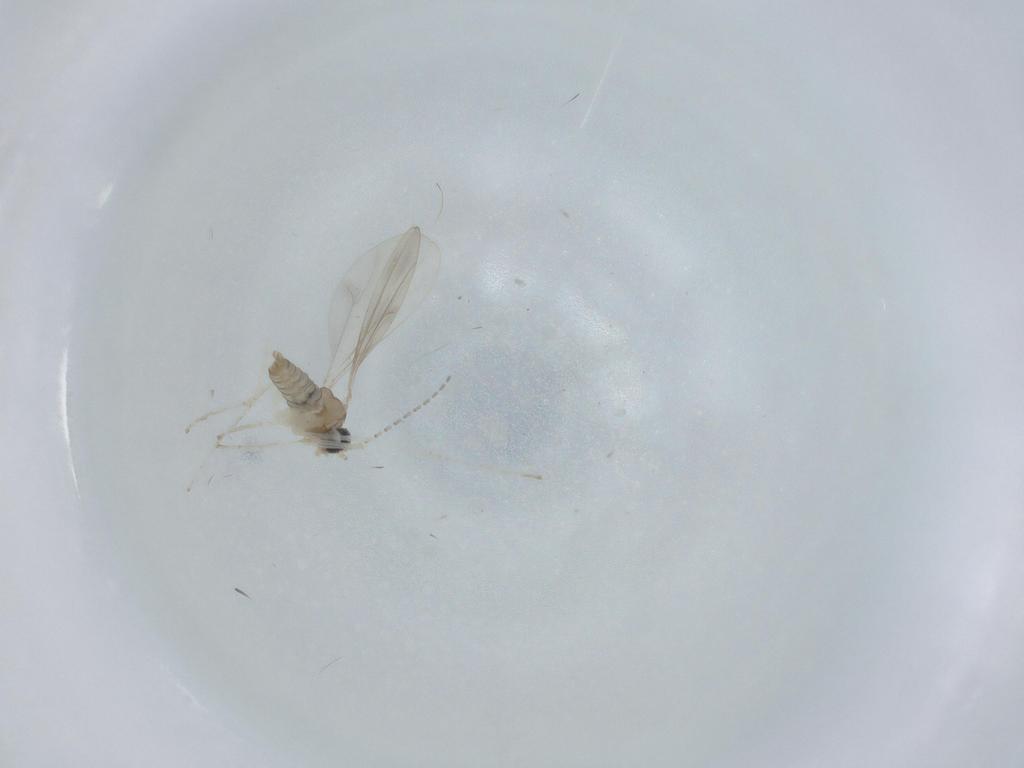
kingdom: Animalia
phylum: Arthropoda
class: Insecta
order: Diptera
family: Cecidomyiidae
